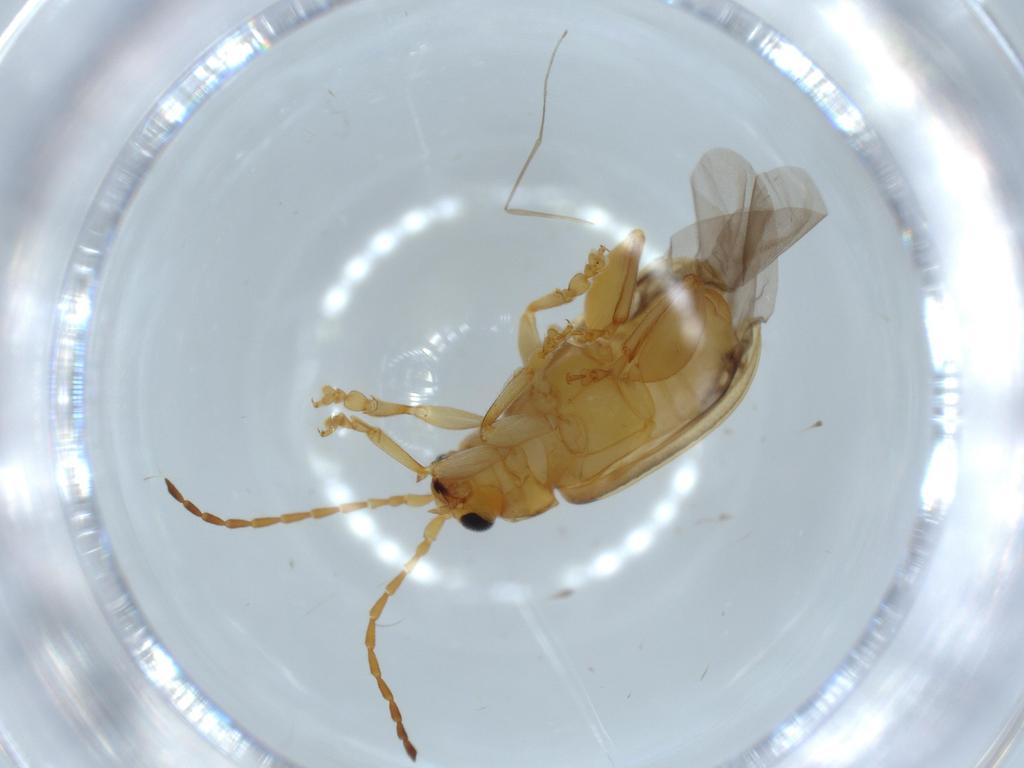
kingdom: Animalia
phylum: Arthropoda
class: Insecta
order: Coleoptera
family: Chrysomelidae
